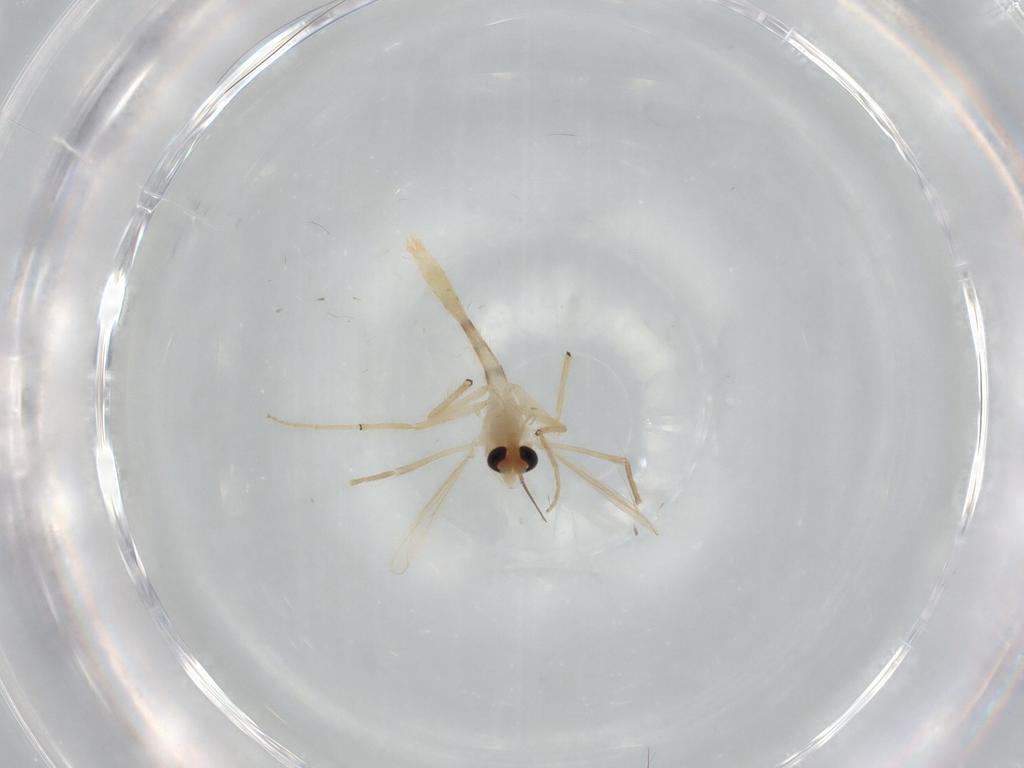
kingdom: Animalia
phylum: Arthropoda
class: Insecta
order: Diptera
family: Chironomidae
